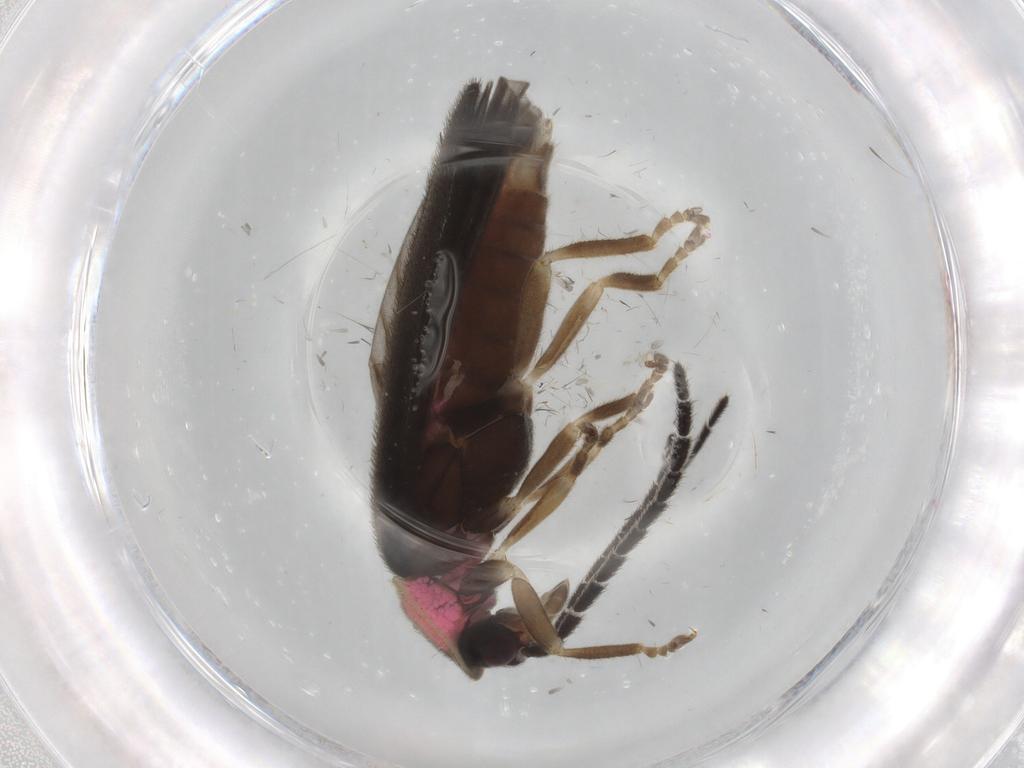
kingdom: Animalia
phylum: Arthropoda
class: Insecta
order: Coleoptera
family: Lampyridae
